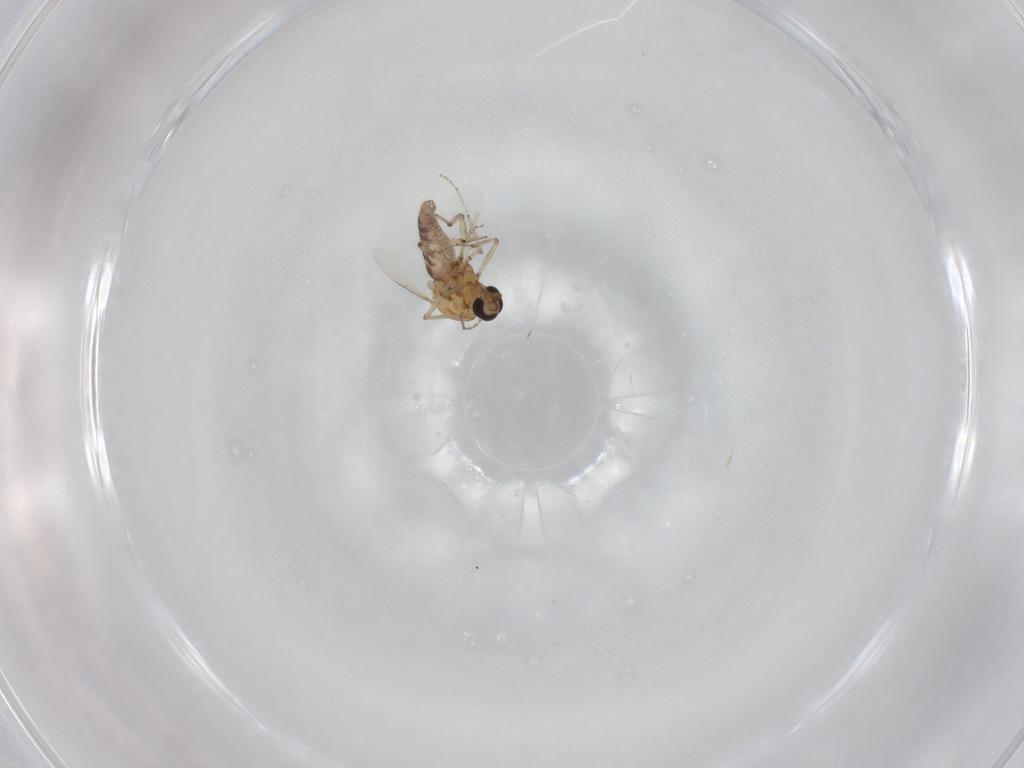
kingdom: Animalia
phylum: Arthropoda
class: Insecta
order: Diptera
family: Ceratopogonidae
